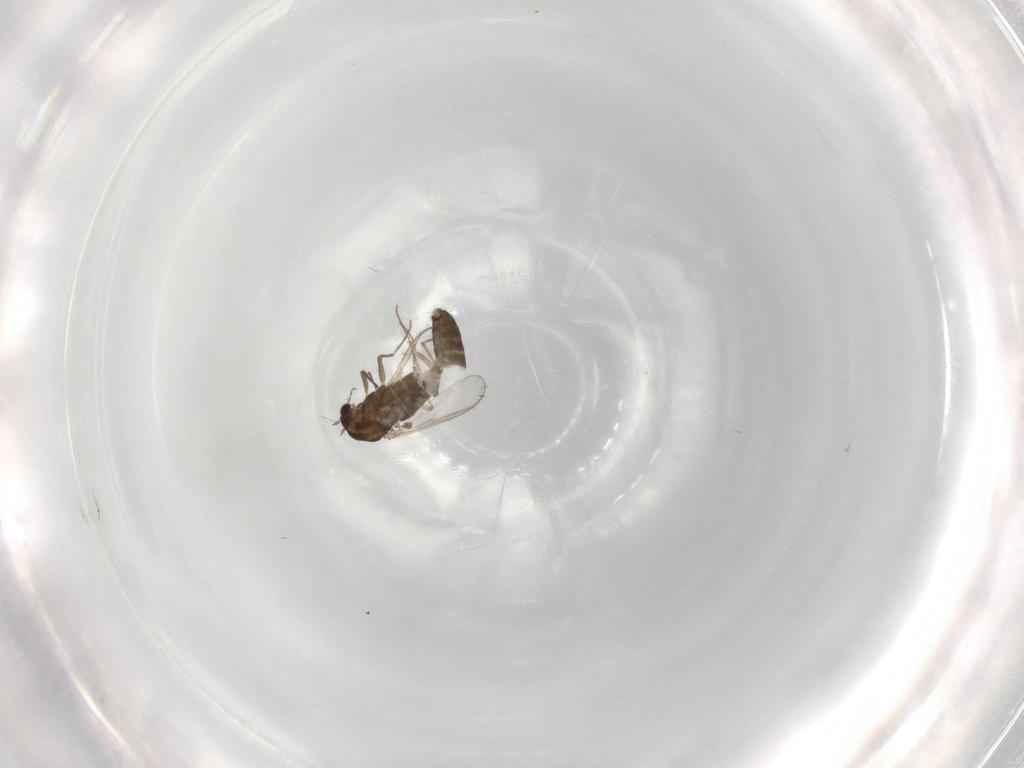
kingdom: Animalia
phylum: Arthropoda
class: Insecta
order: Diptera
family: Chironomidae
